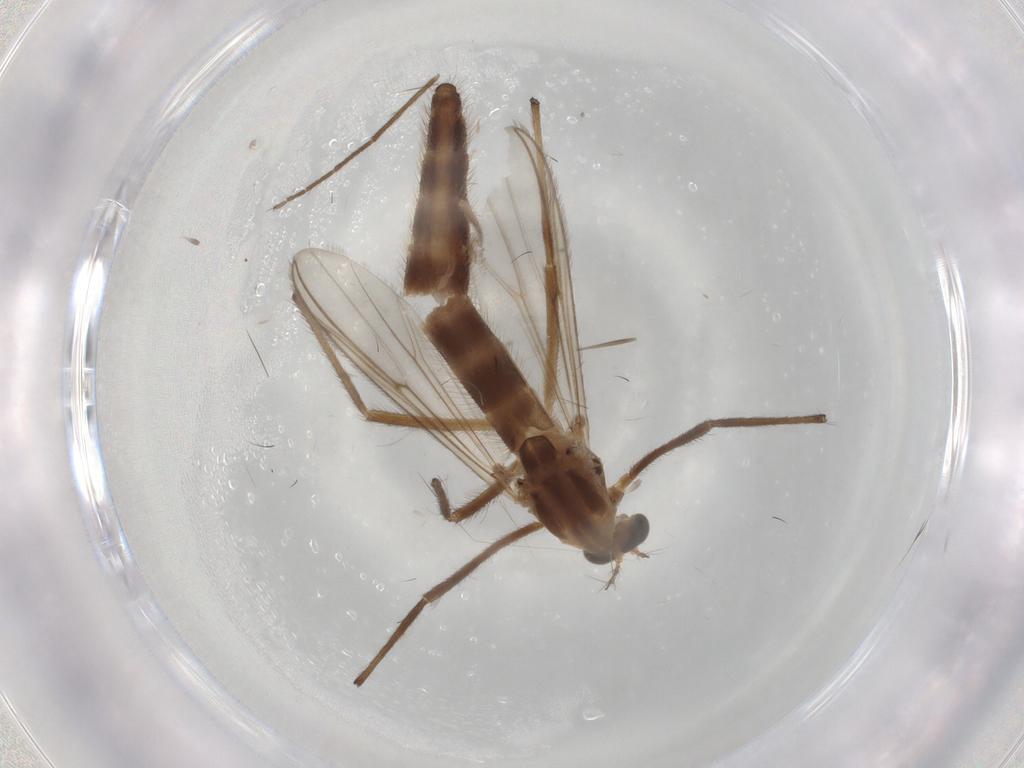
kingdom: Animalia
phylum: Arthropoda
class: Insecta
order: Diptera
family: Chironomidae
